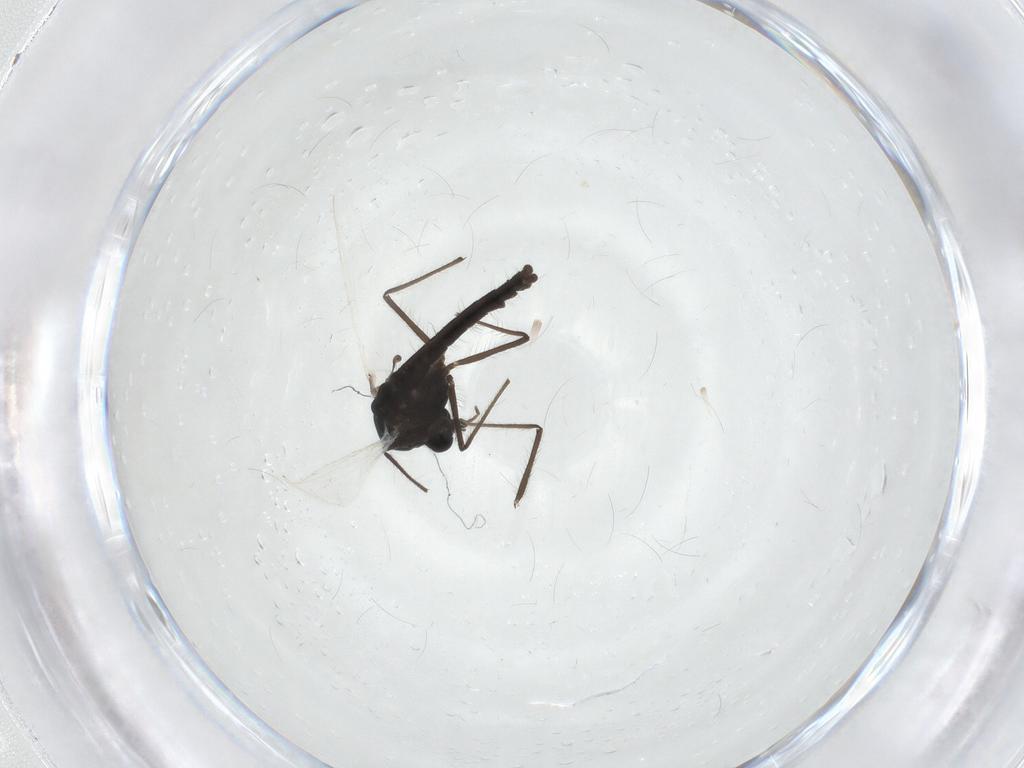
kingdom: Animalia
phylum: Arthropoda
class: Insecta
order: Diptera
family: Chironomidae
